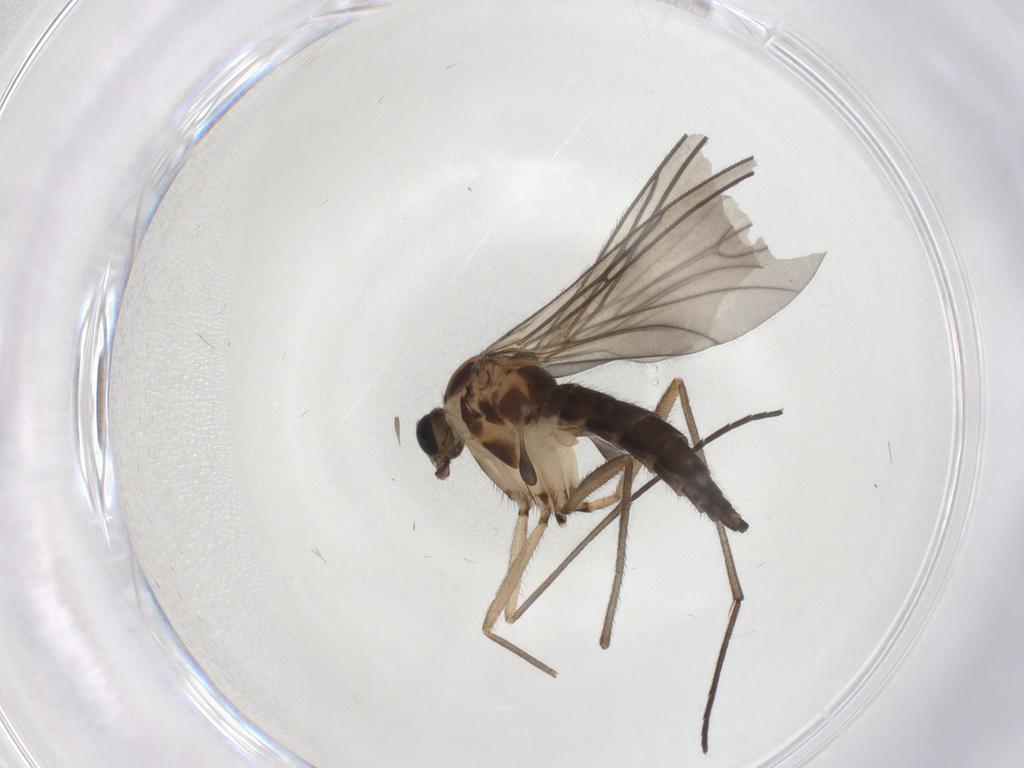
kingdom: Animalia
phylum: Arthropoda
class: Insecta
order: Diptera
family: Sciaridae
